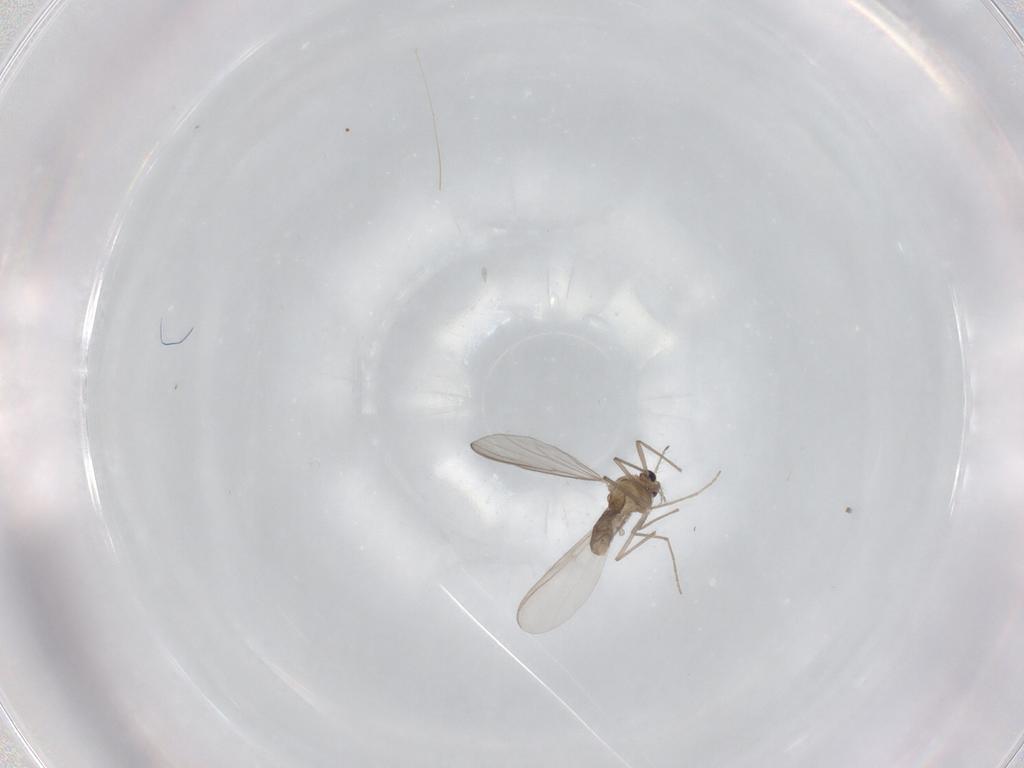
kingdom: Animalia
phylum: Arthropoda
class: Insecta
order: Diptera
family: Chironomidae
